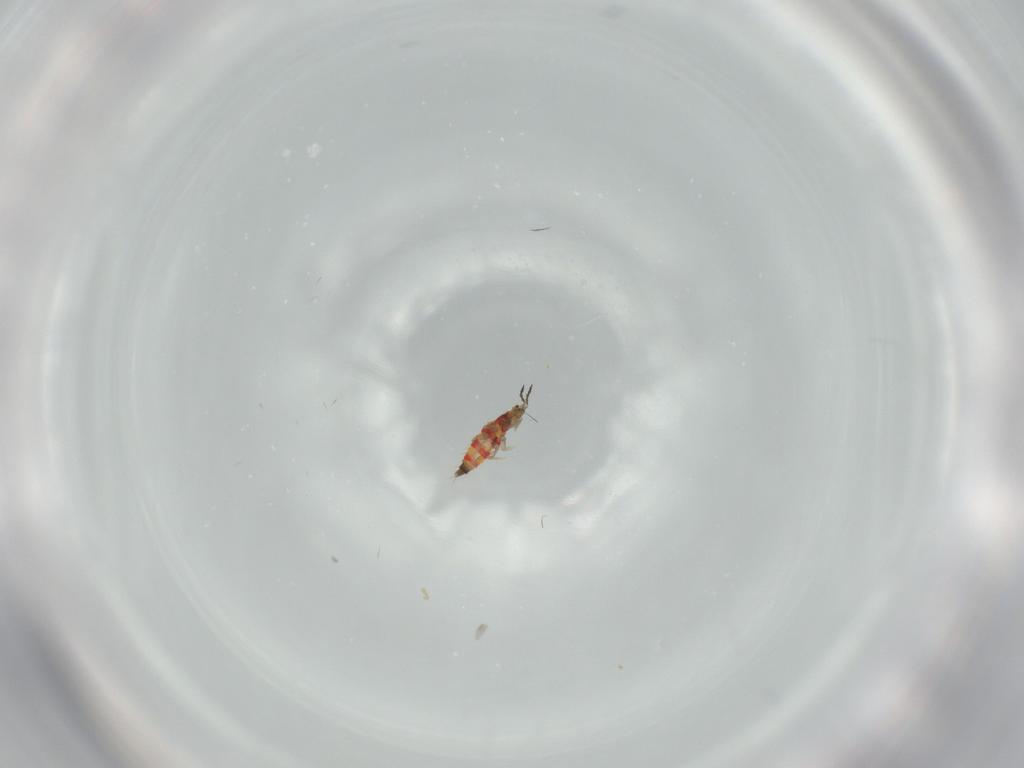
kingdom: Animalia
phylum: Arthropoda
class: Insecta
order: Thysanoptera
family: Phlaeothripidae
